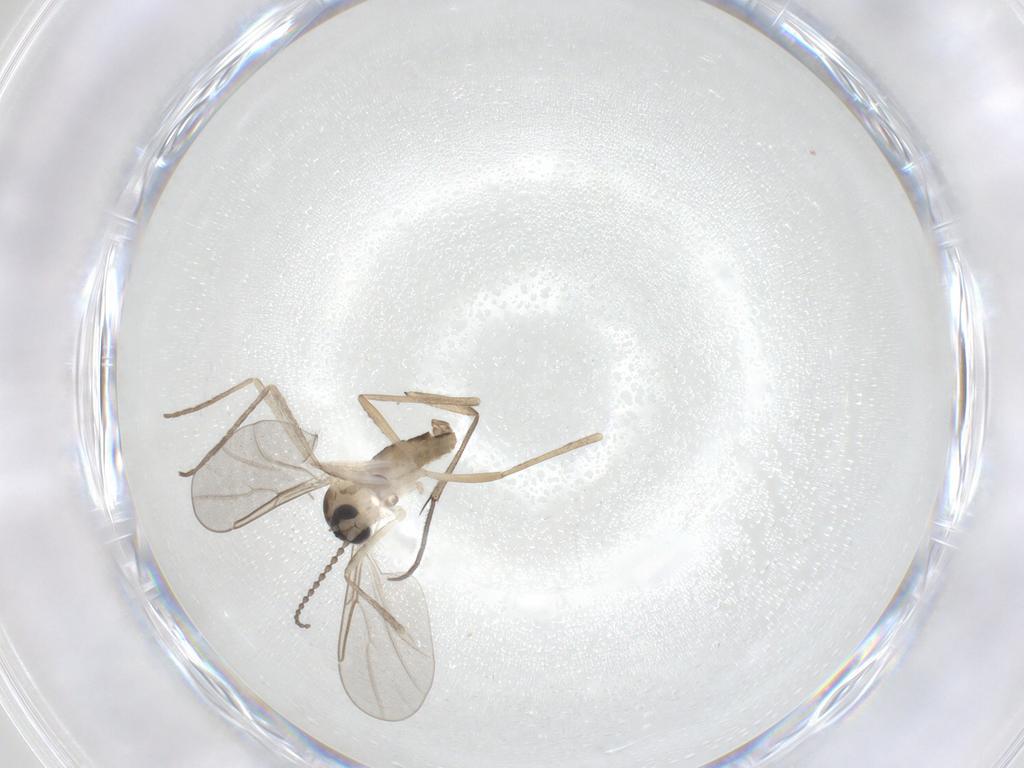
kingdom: Animalia
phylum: Arthropoda
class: Insecta
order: Diptera
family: Cecidomyiidae
